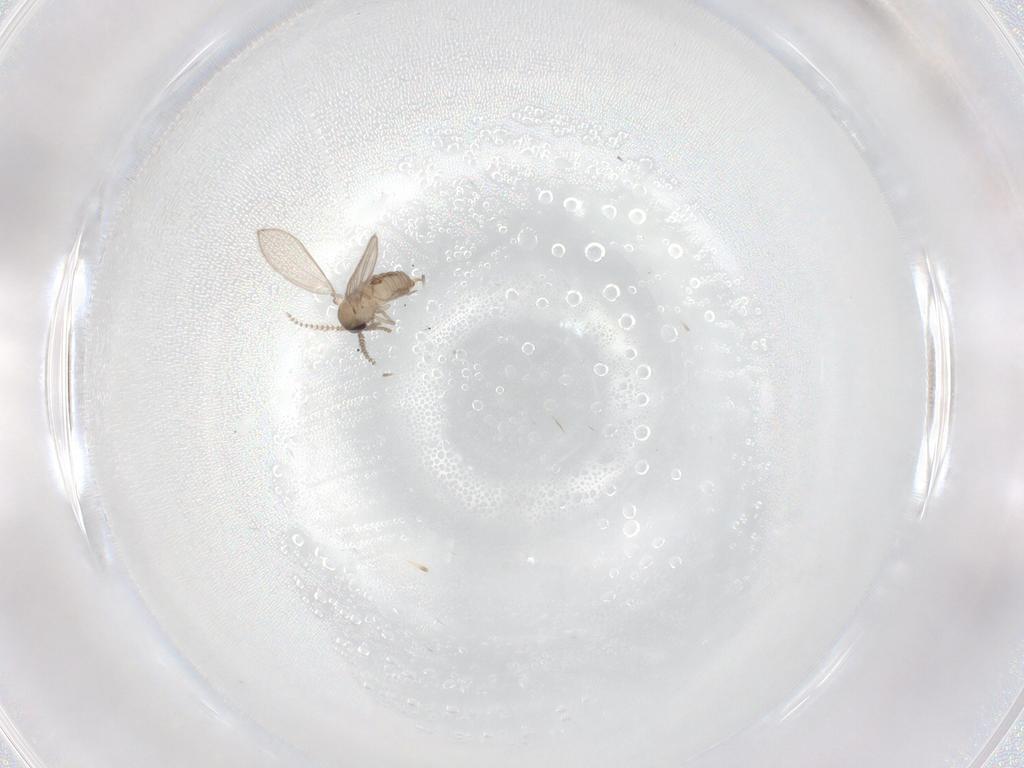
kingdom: Animalia
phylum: Arthropoda
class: Insecta
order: Diptera
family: Psychodidae
